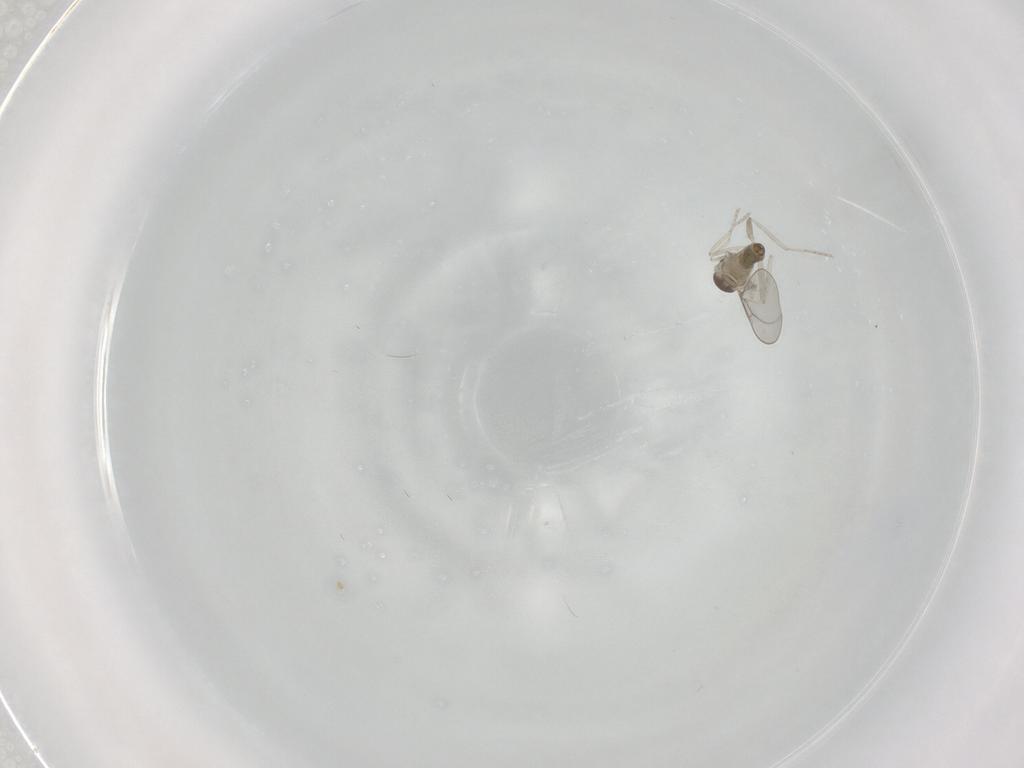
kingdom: Animalia
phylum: Arthropoda
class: Insecta
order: Diptera
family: Cecidomyiidae
